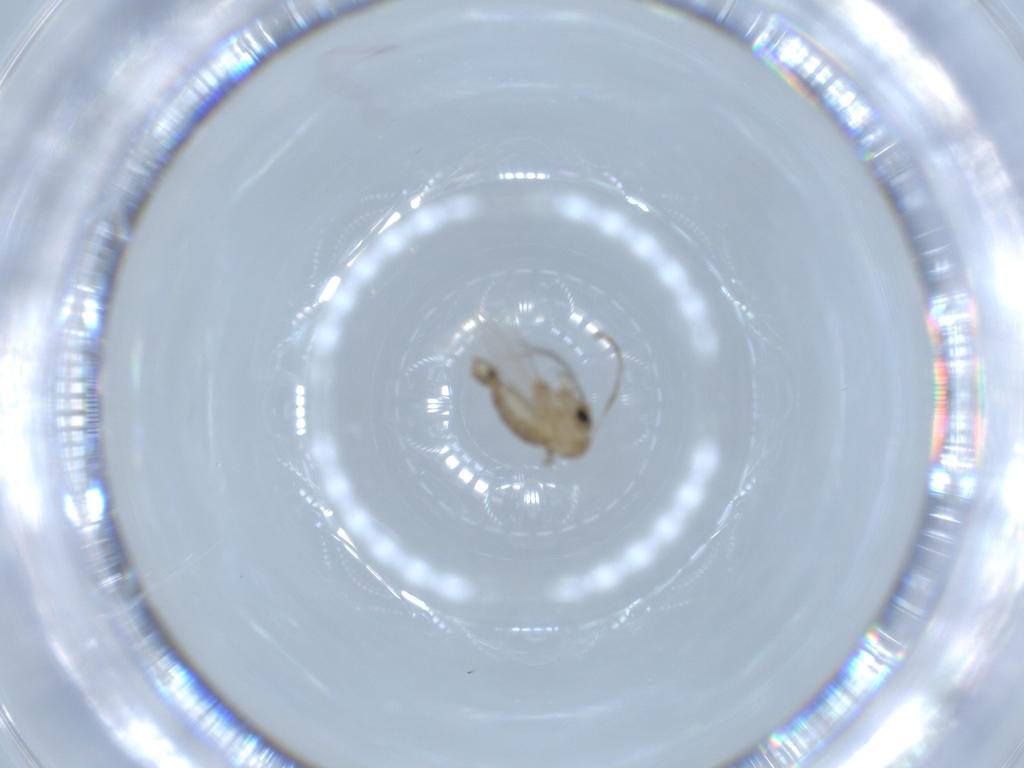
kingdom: Animalia
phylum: Arthropoda
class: Insecta
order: Diptera
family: Psychodidae
